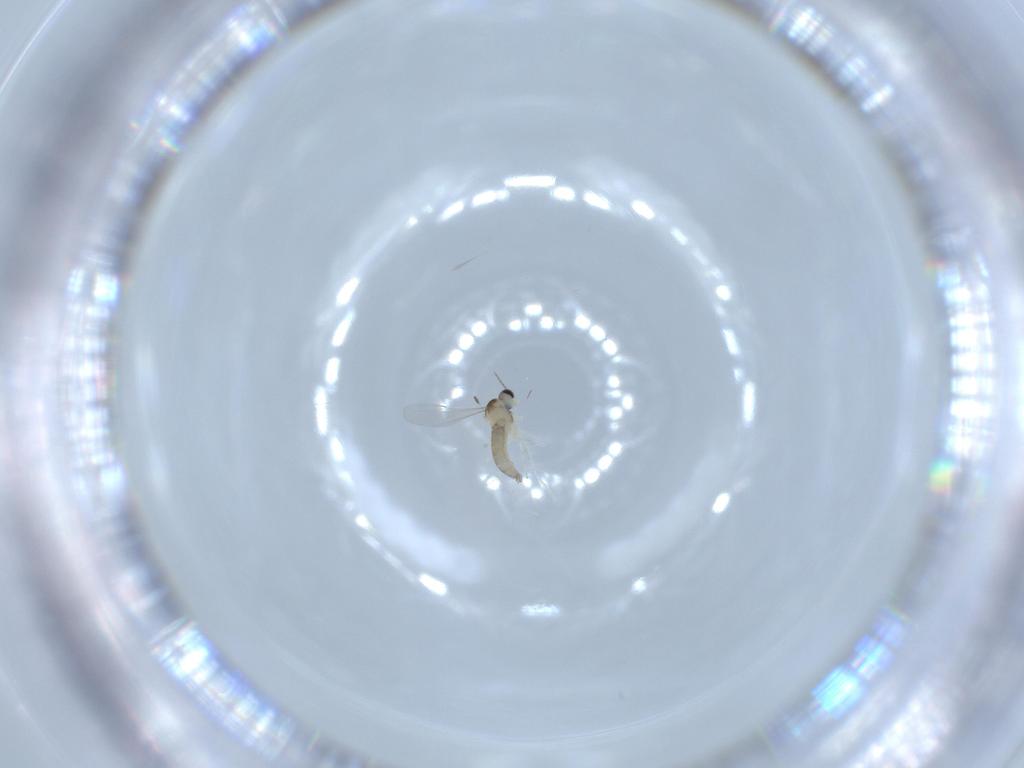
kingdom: Animalia
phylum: Arthropoda
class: Insecta
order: Diptera
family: Sciaridae
